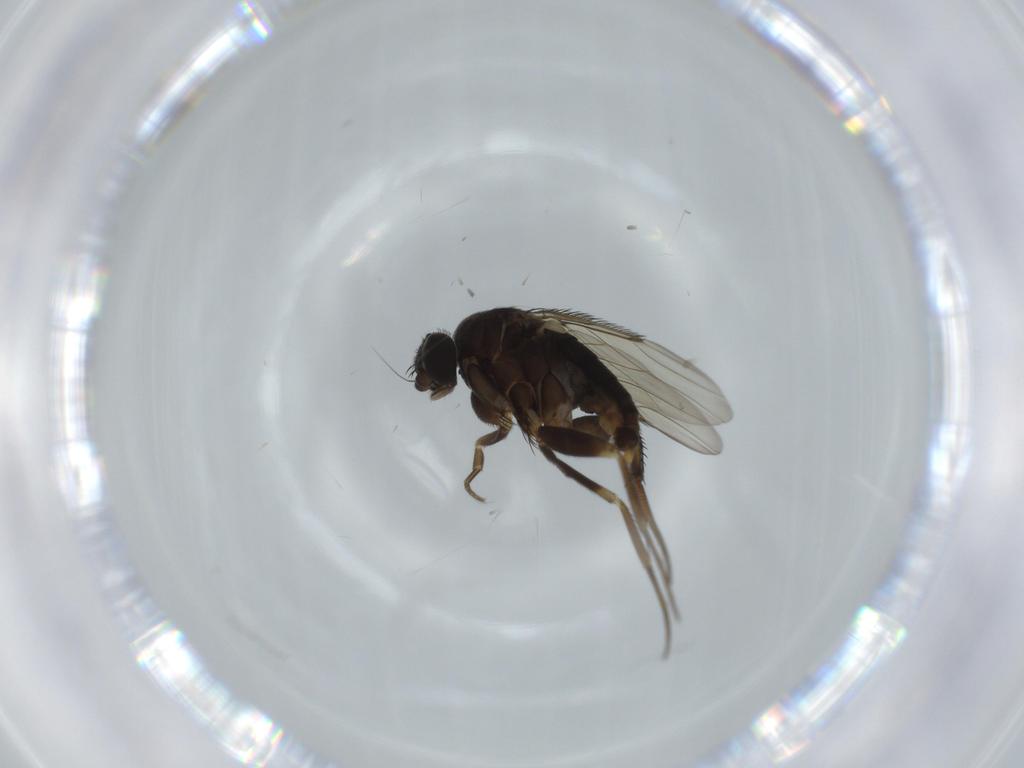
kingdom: Animalia
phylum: Arthropoda
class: Insecta
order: Diptera
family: Phoridae
